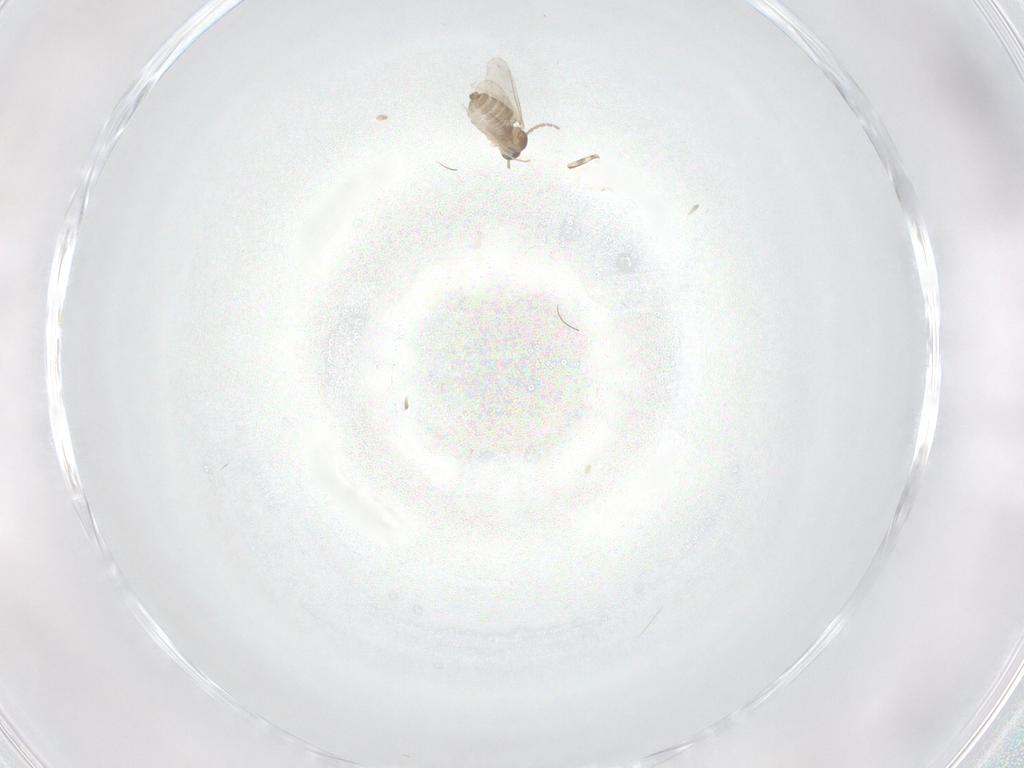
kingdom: Animalia
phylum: Arthropoda
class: Insecta
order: Diptera
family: Cecidomyiidae
